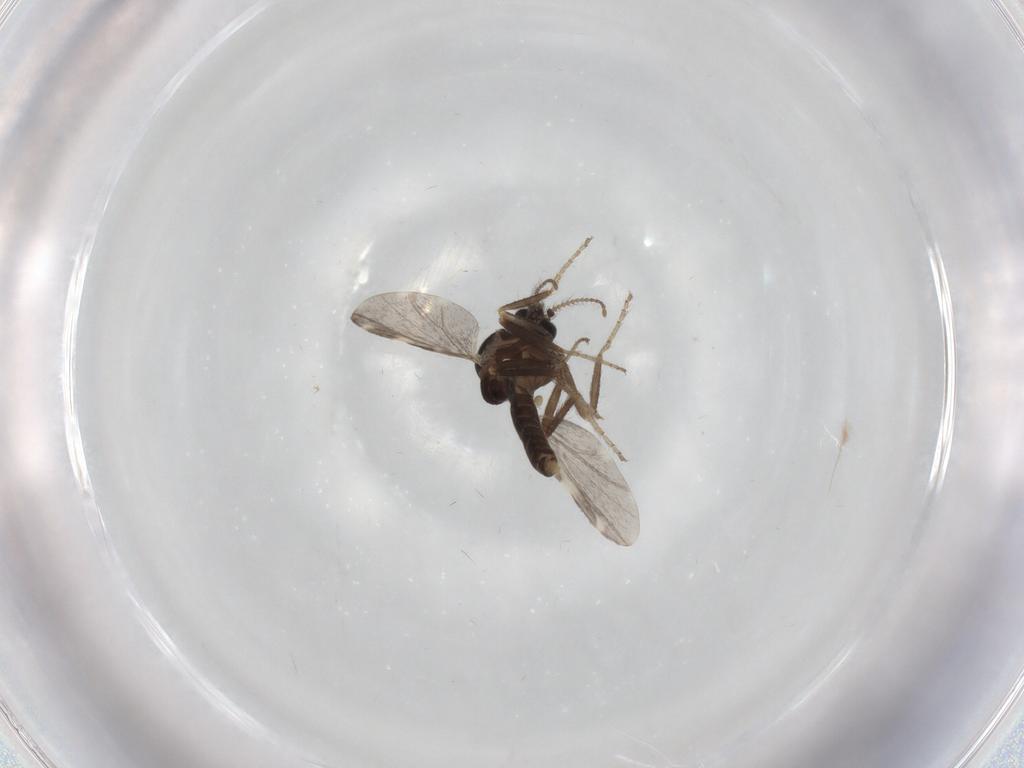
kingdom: Animalia
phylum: Arthropoda
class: Insecta
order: Diptera
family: Ceratopogonidae
